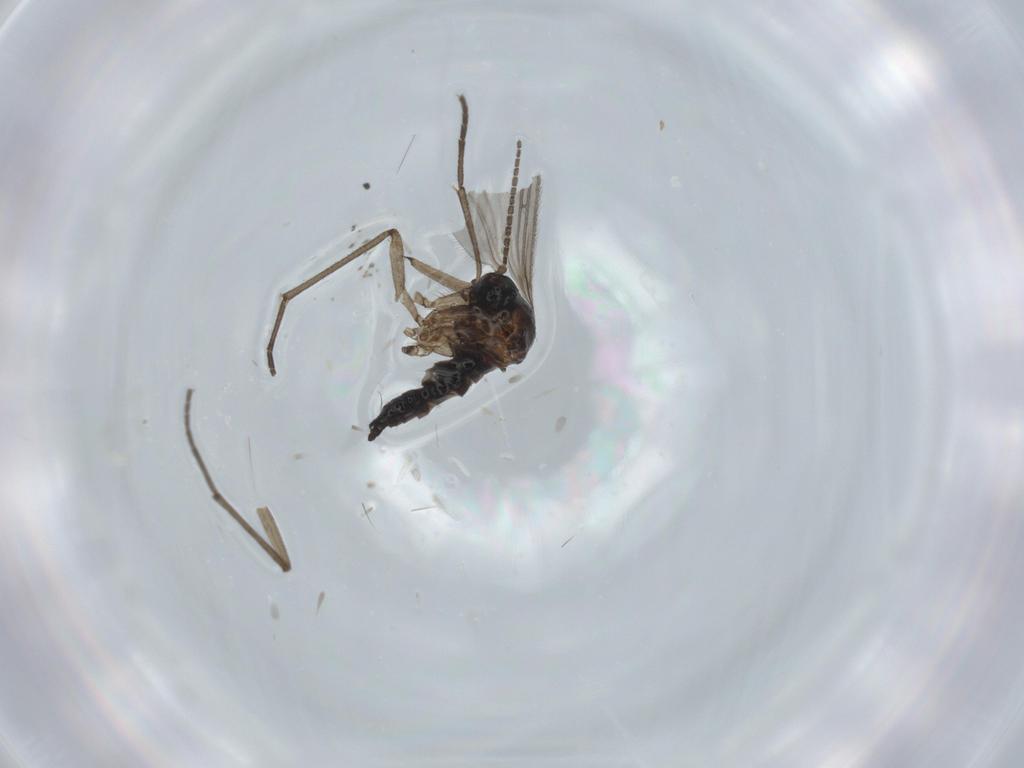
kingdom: Animalia
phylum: Arthropoda
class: Insecta
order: Diptera
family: Sciaridae
